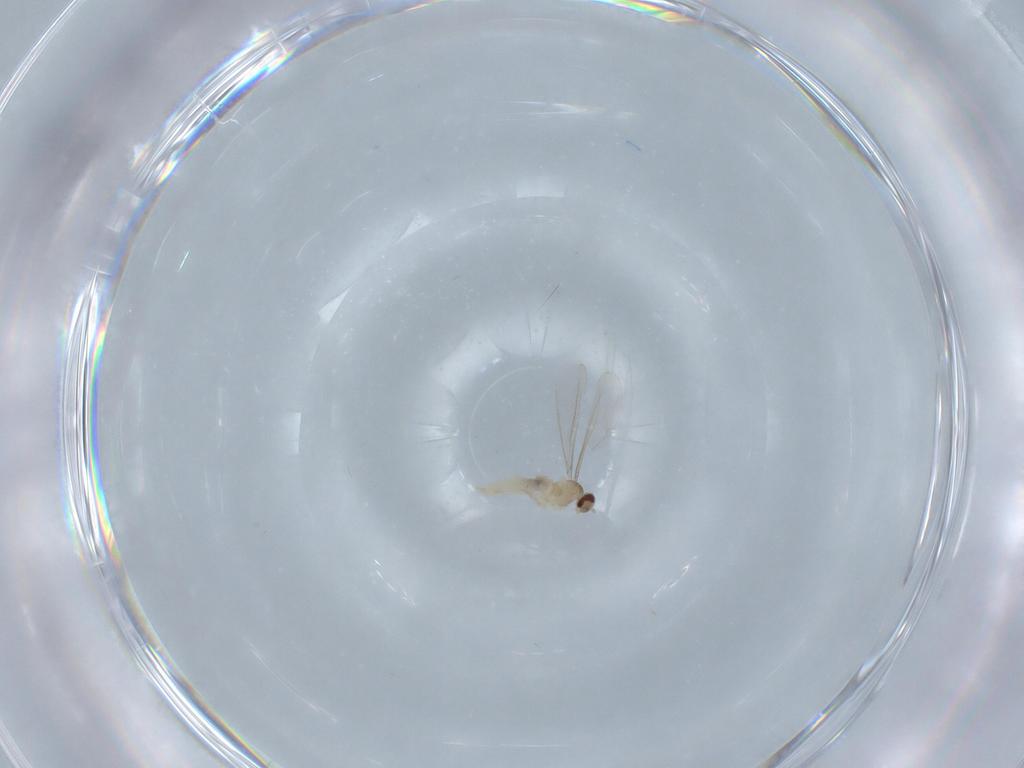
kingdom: Animalia
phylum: Arthropoda
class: Insecta
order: Diptera
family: Cecidomyiidae
